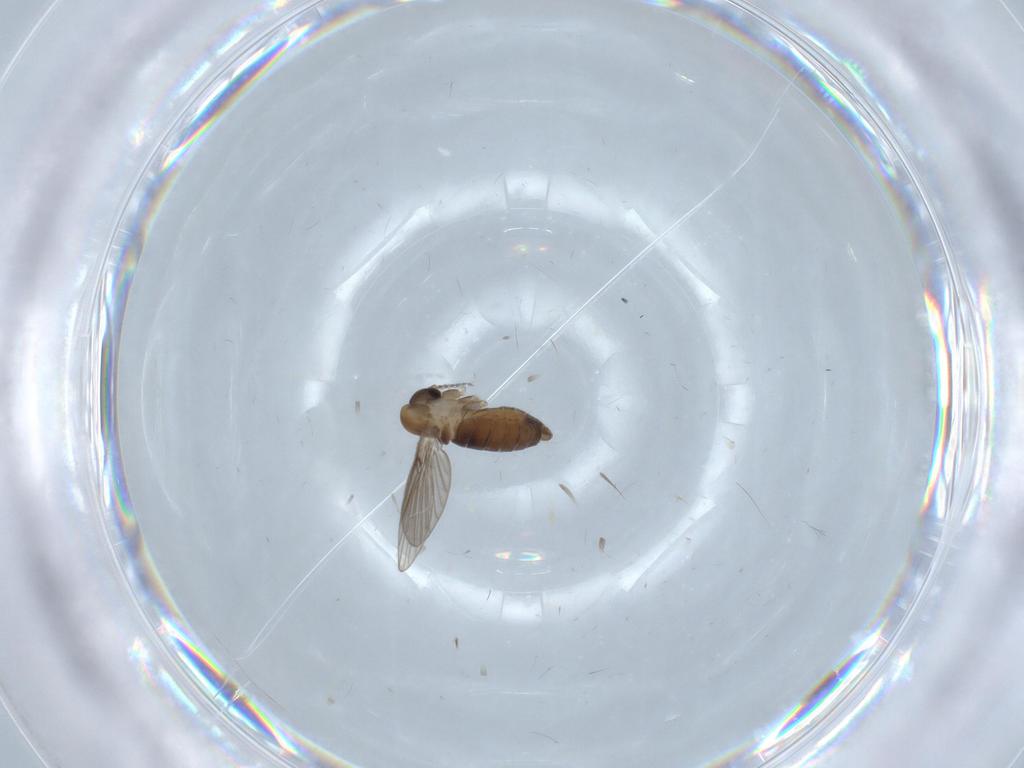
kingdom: Animalia
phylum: Arthropoda
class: Insecta
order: Diptera
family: Psychodidae
